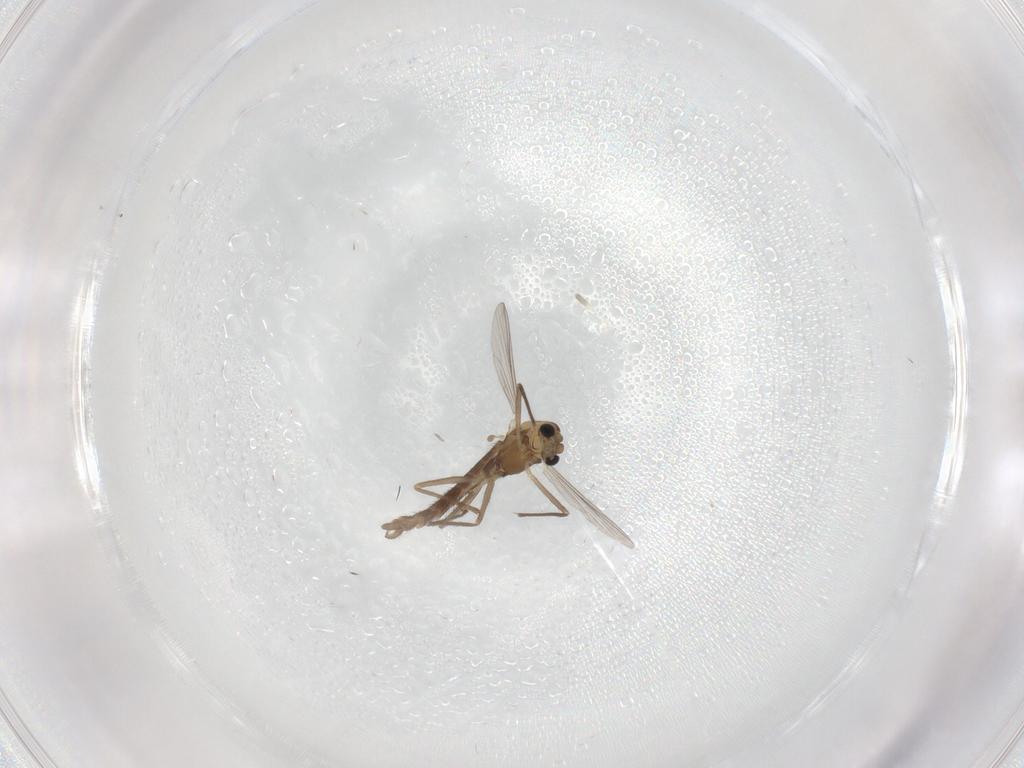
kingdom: Animalia
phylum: Arthropoda
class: Insecta
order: Diptera
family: Chironomidae
